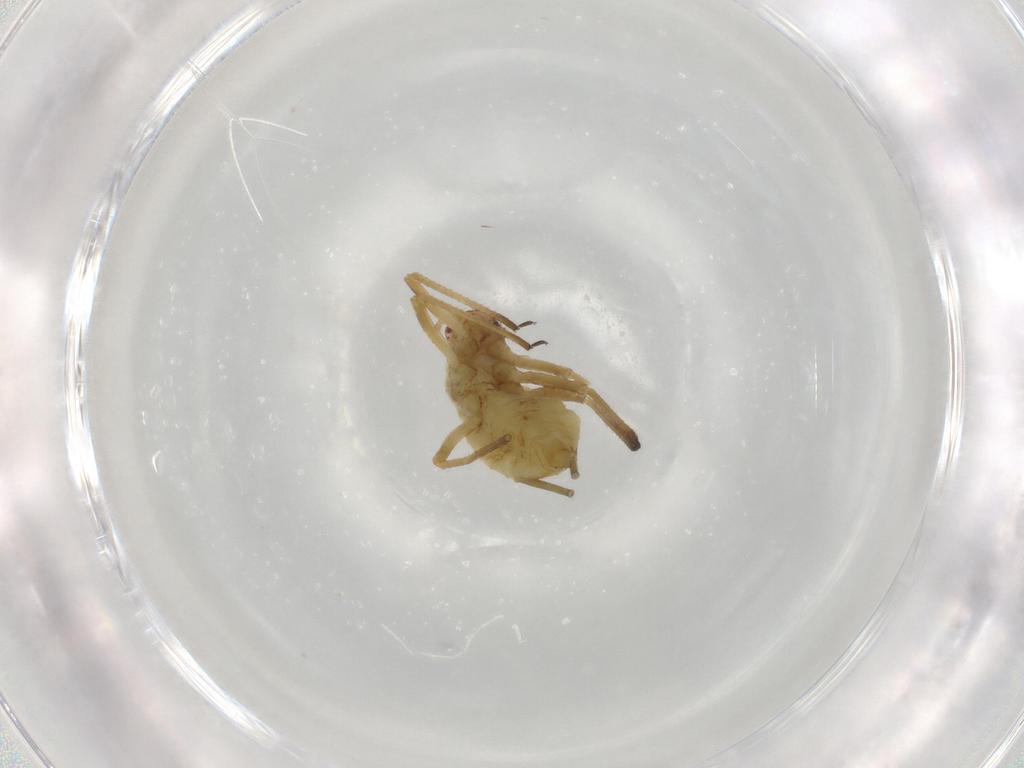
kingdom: Animalia
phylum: Arthropoda
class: Insecta
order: Hemiptera
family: Aphididae
